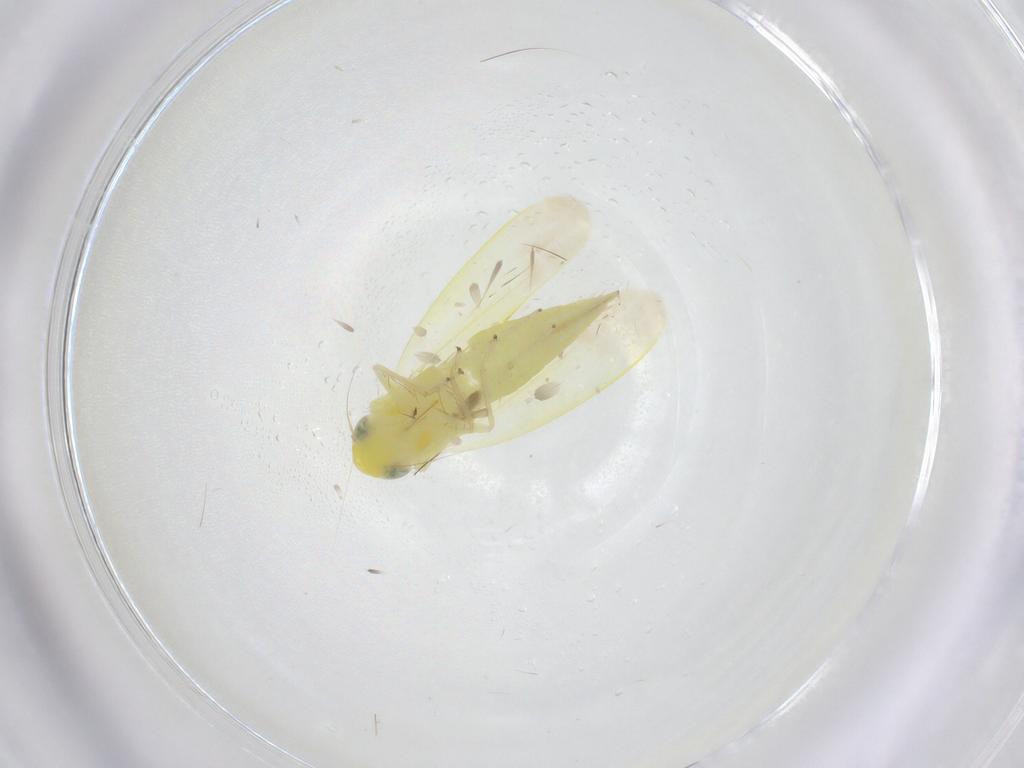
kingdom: Animalia
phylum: Arthropoda
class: Insecta
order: Hemiptera
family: Cicadellidae
